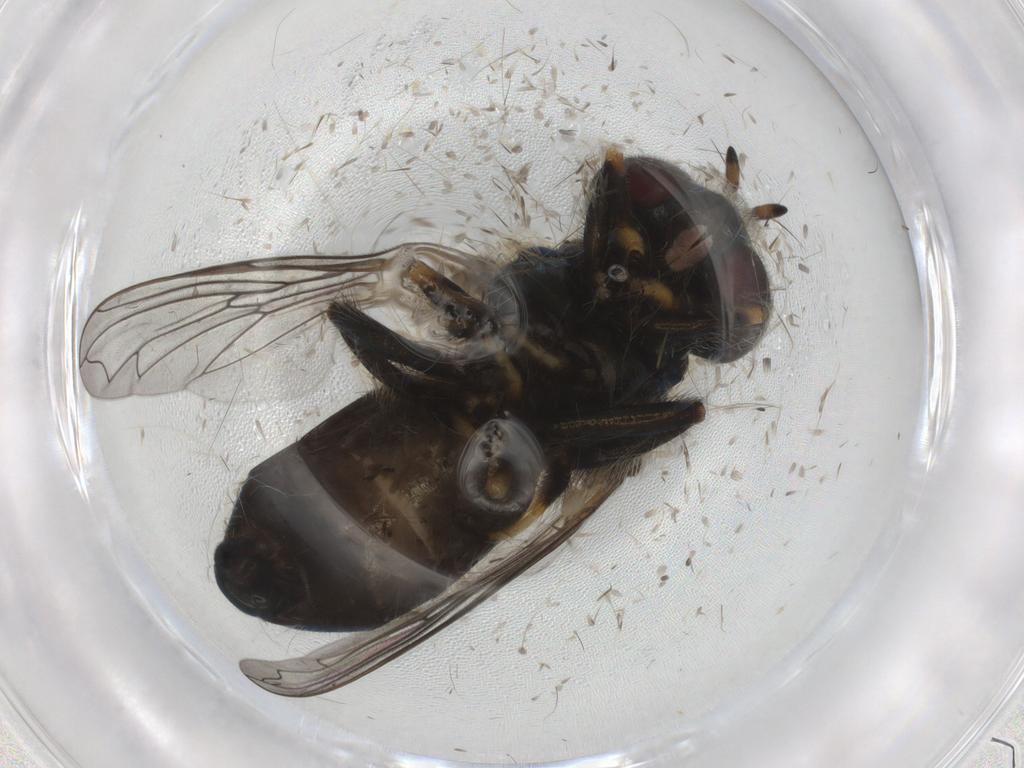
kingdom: Animalia
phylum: Arthropoda
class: Insecta
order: Diptera
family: Syrphidae
